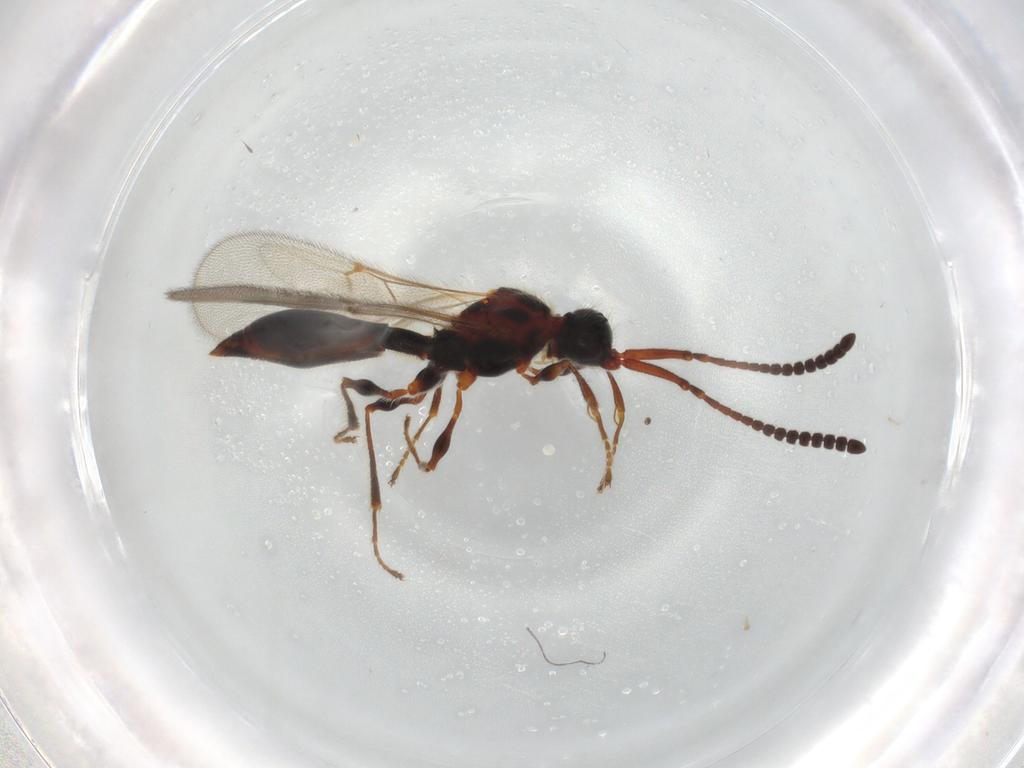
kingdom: Animalia
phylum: Arthropoda
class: Insecta
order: Hymenoptera
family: Diapriidae
